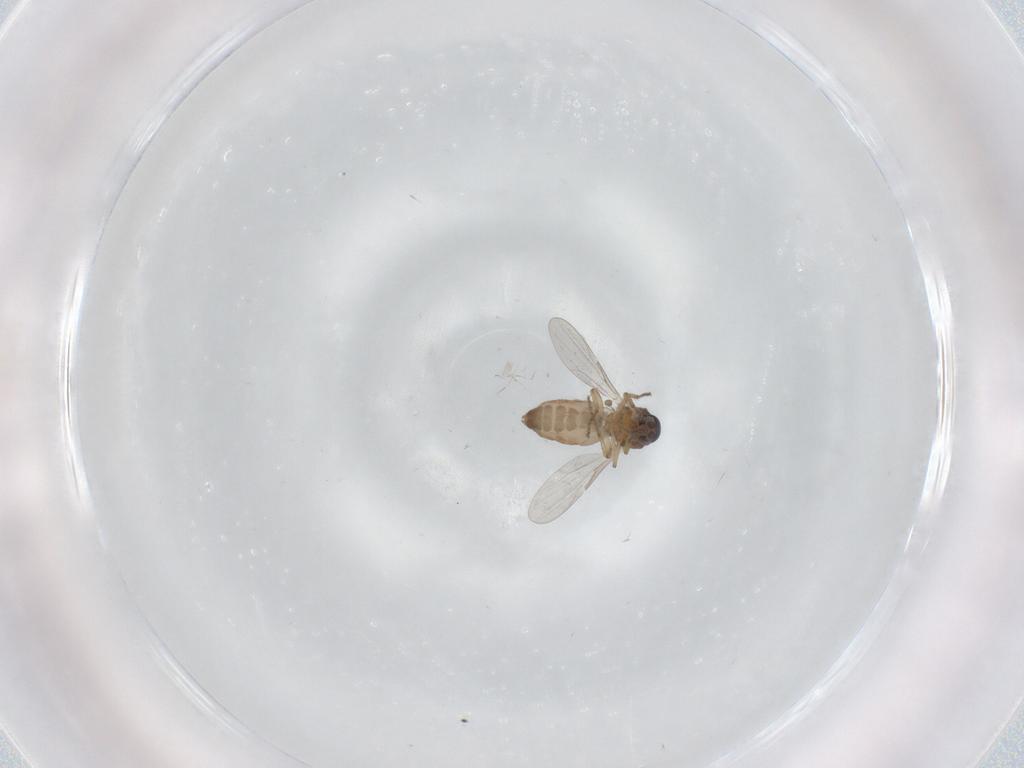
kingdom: Animalia
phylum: Arthropoda
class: Insecta
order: Diptera
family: Ceratopogonidae
